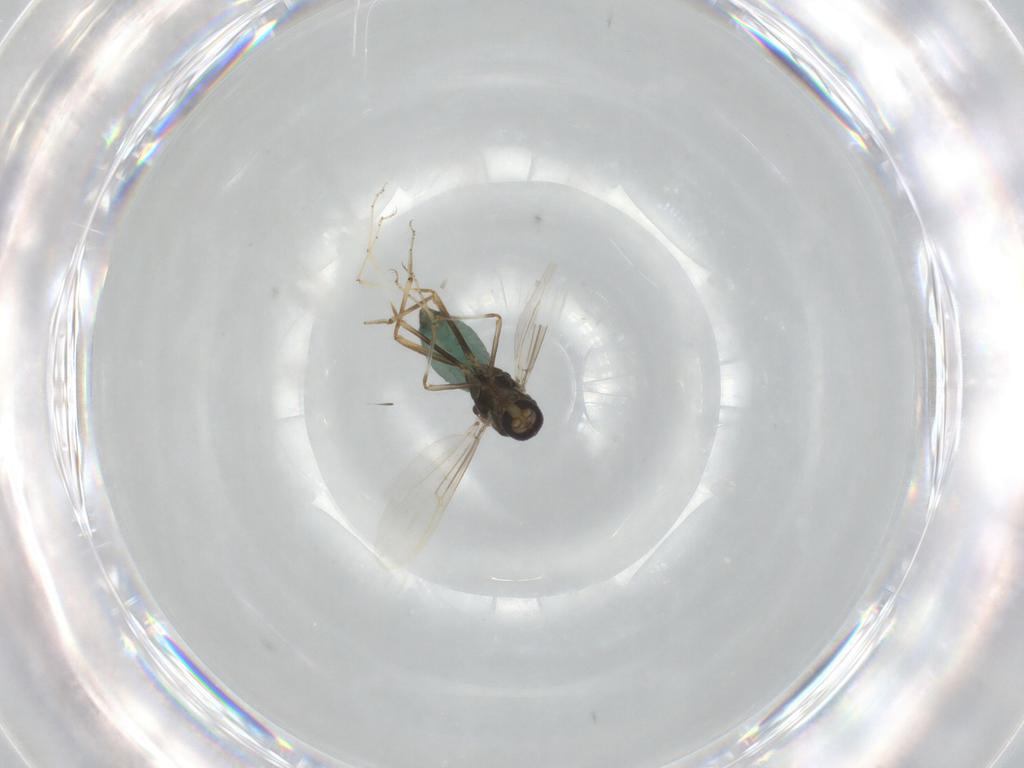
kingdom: Animalia
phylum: Arthropoda
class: Insecta
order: Diptera
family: Ceratopogonidae
